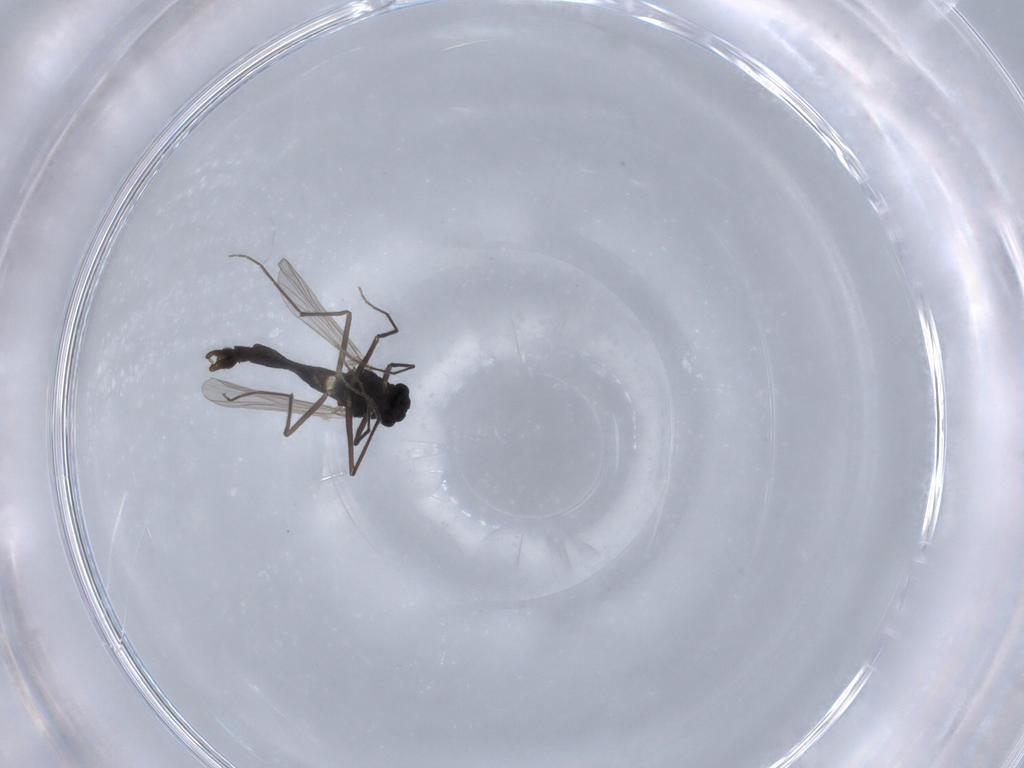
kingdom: Animalia
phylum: Arthropoda
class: Insecta
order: Diptera
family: Chironomidae
